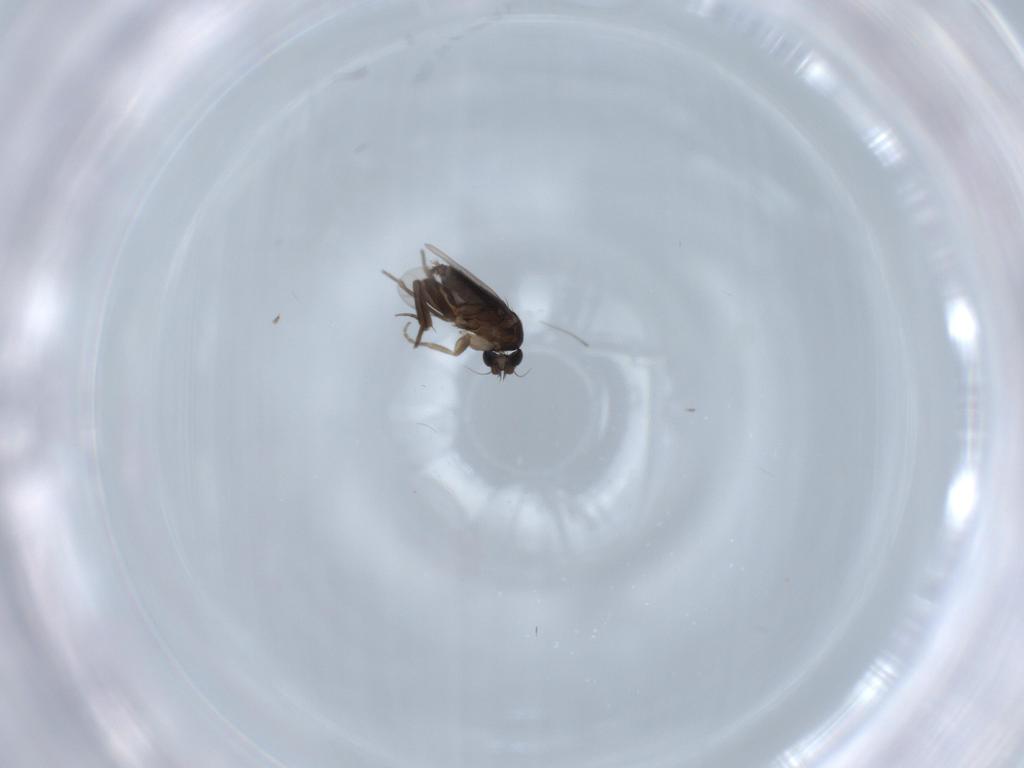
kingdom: Animalia
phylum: Arthropoda
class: Insecta
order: Diptera
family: Phoridae
